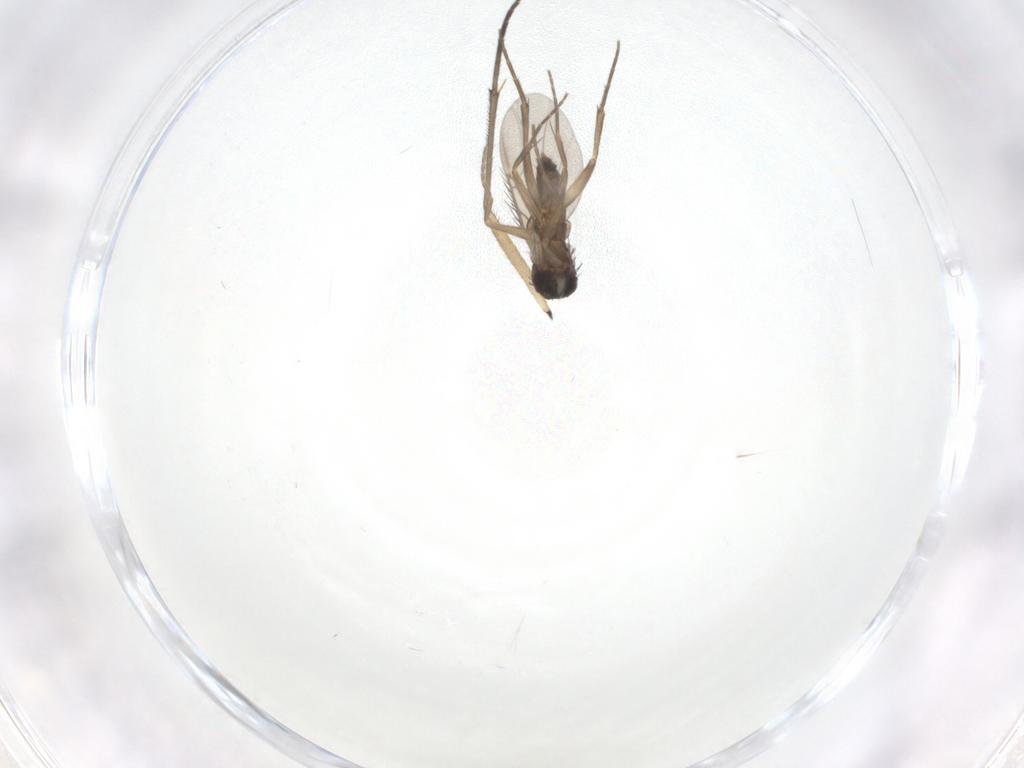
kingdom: Animalia
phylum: Arthropoda
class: Insecta
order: Diptera
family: Phoridae
